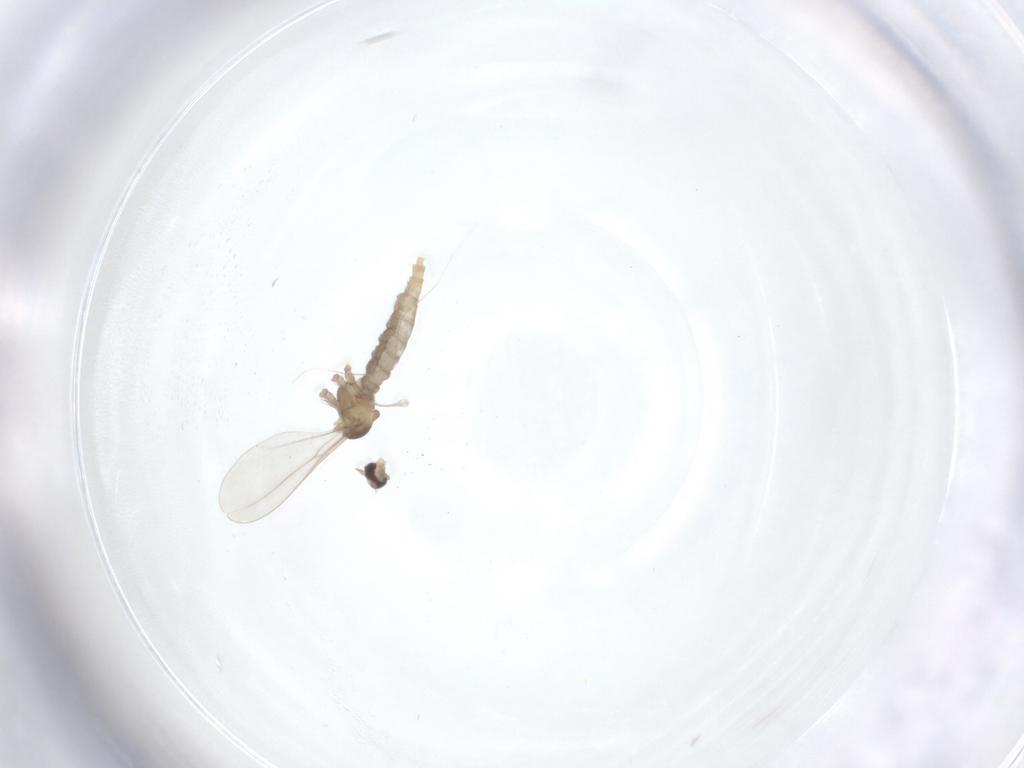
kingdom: Animalia
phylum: Arthropoda
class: Insecta
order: Diptera
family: Cecidomyiidae
